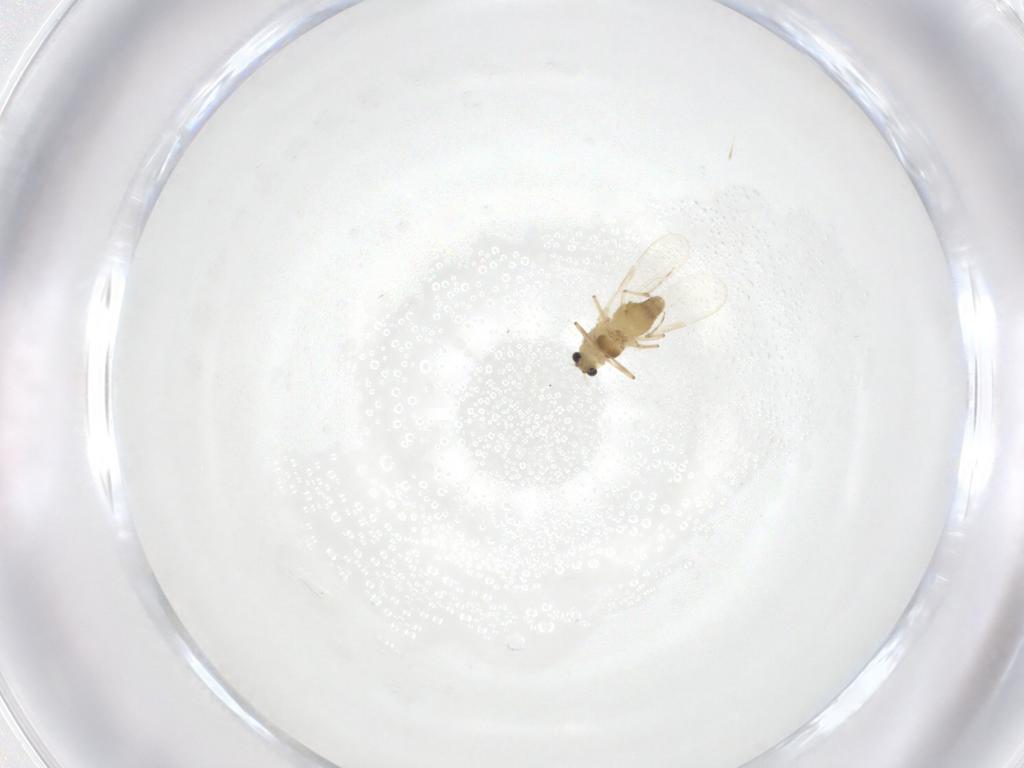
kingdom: Animalia
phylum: Arthropoda
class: Insecta
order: Diptera
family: Chironomidae
